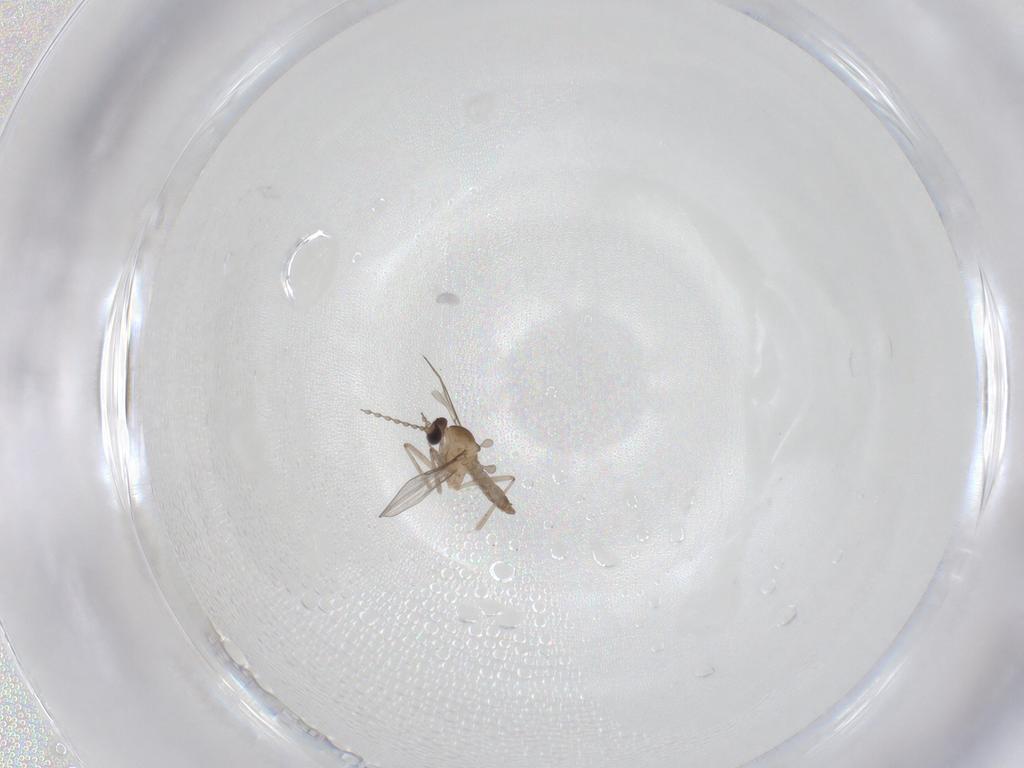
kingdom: Animalia
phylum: Arthropoda
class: Insecta
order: Diptera
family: Cecidomyiidae
